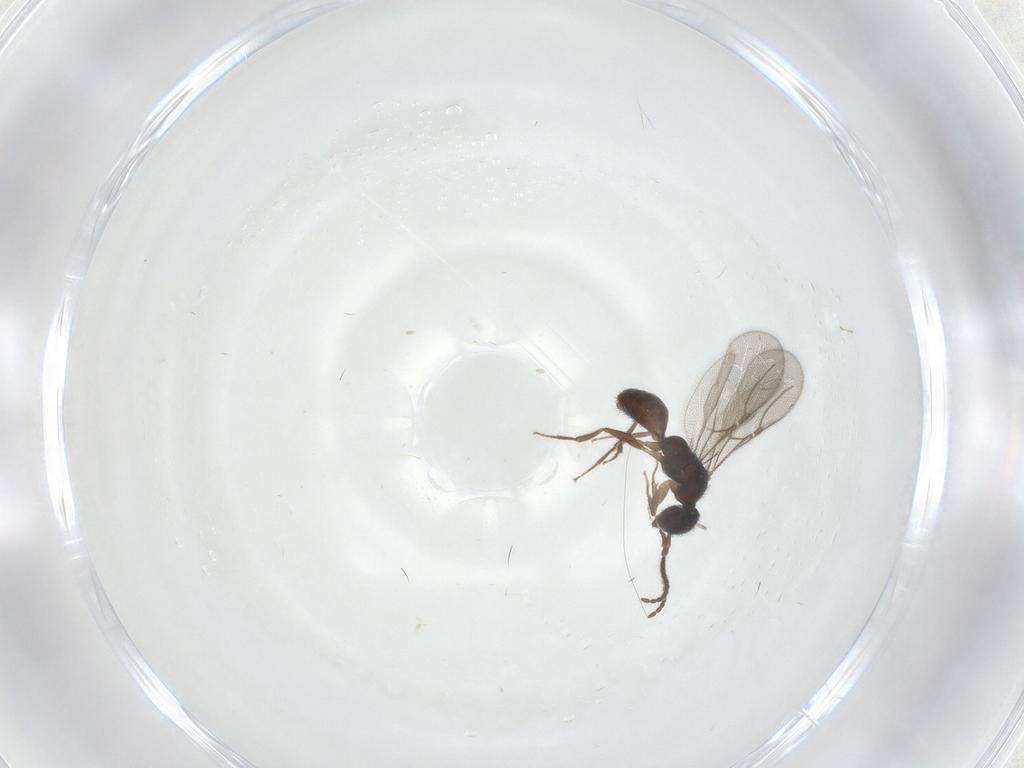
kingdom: Animalia
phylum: Arthropoda
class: Insecta
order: Hymenoptera
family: Bethylidae
